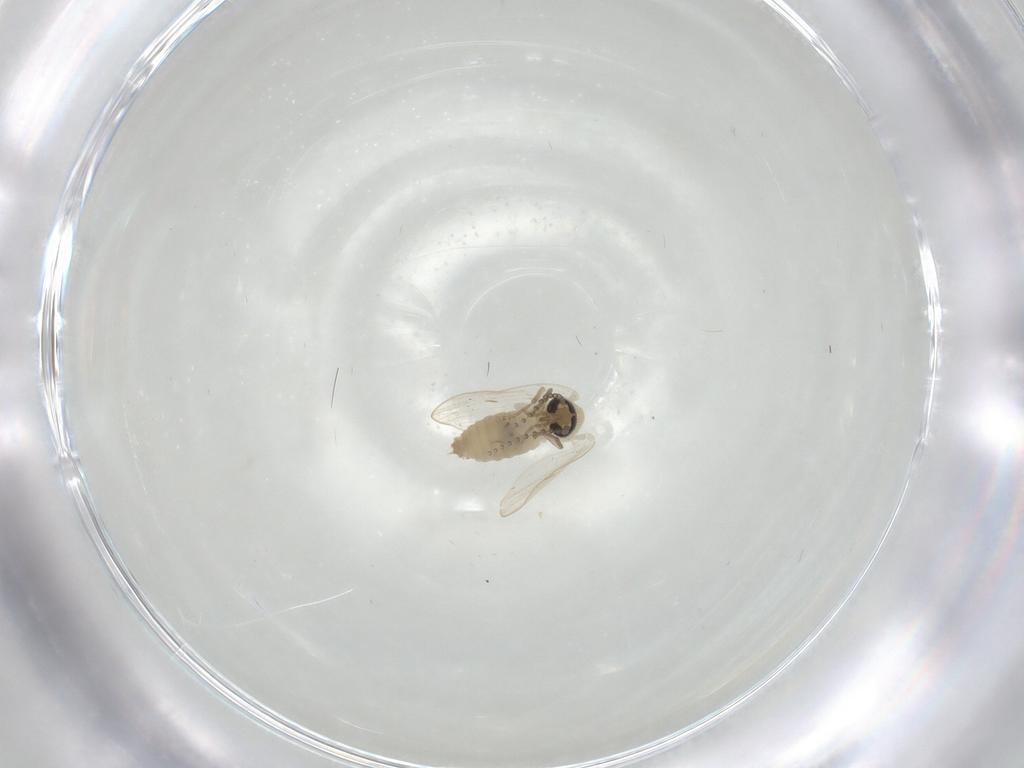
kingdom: Animalia
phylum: Arthropoda
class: Insecta
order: Diptera
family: Psychodidae
